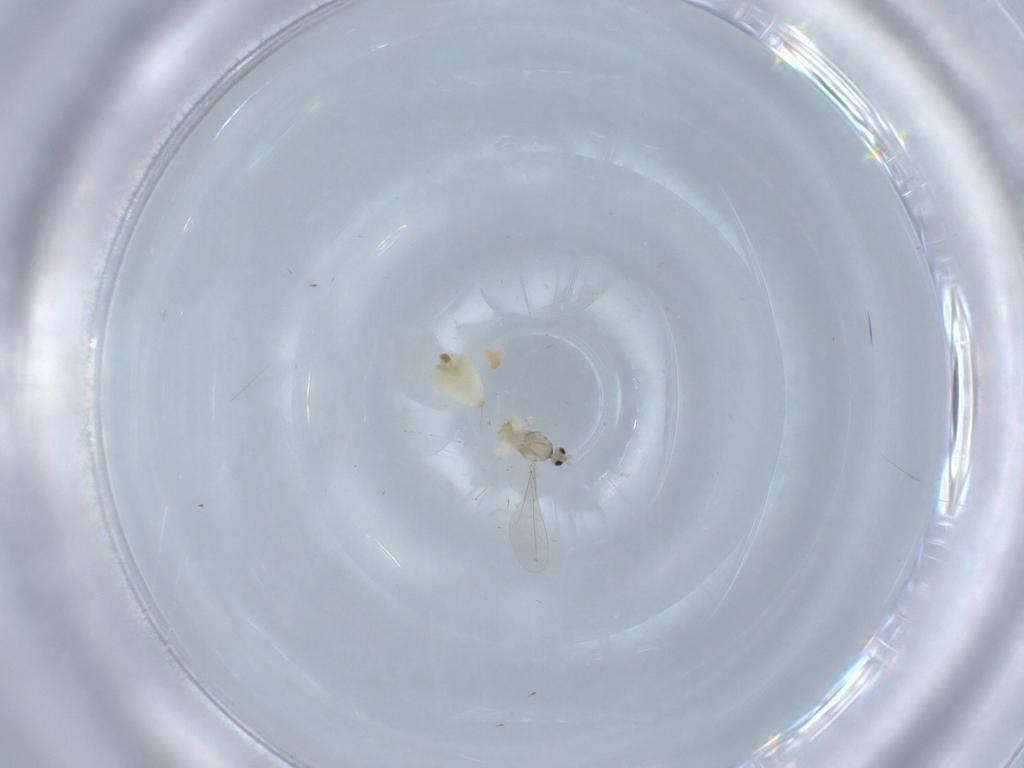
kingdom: Animalia
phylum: Arthropoda
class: Insecta
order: Diptera
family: Cecidomyiidae
